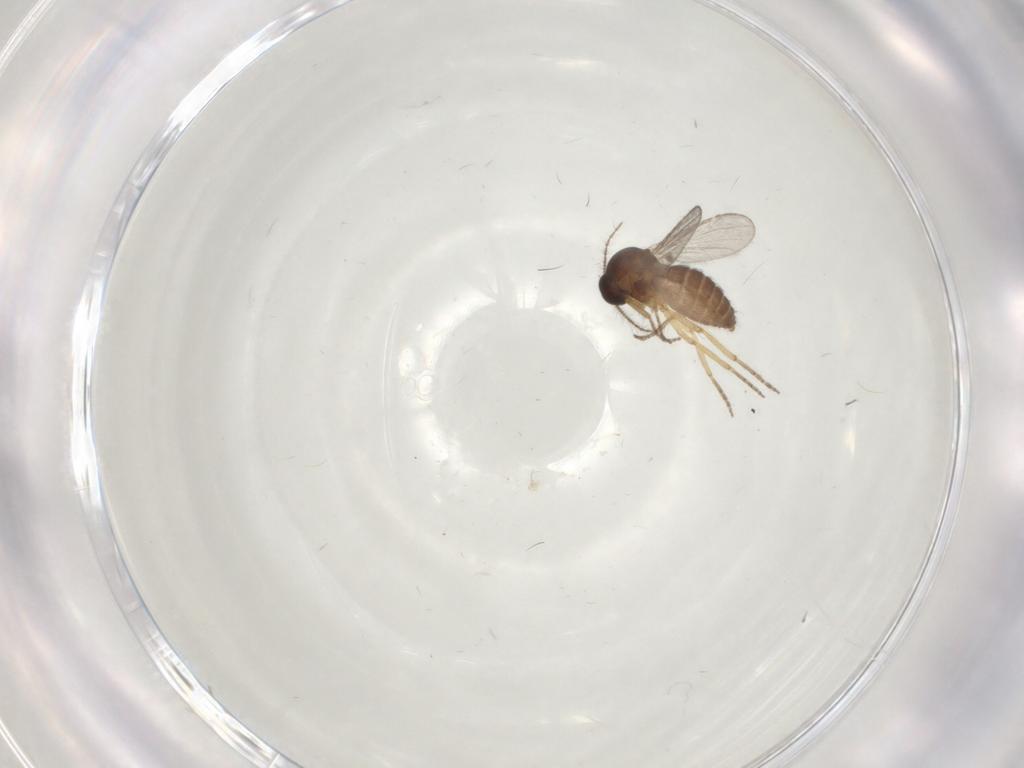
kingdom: Animalia
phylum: Arthropoda
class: Insecta
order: Diptera
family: Ceratopogonidae
